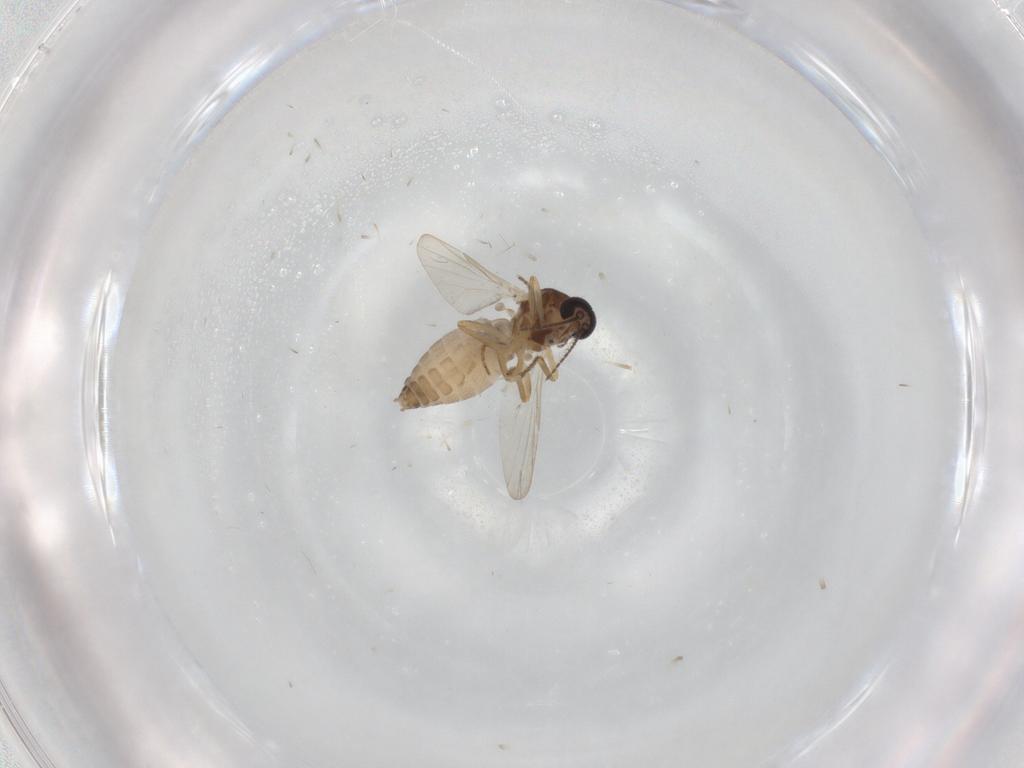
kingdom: Animalia
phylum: Arthropoda
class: Insecta
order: Diptera
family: Ceratopogonidae
